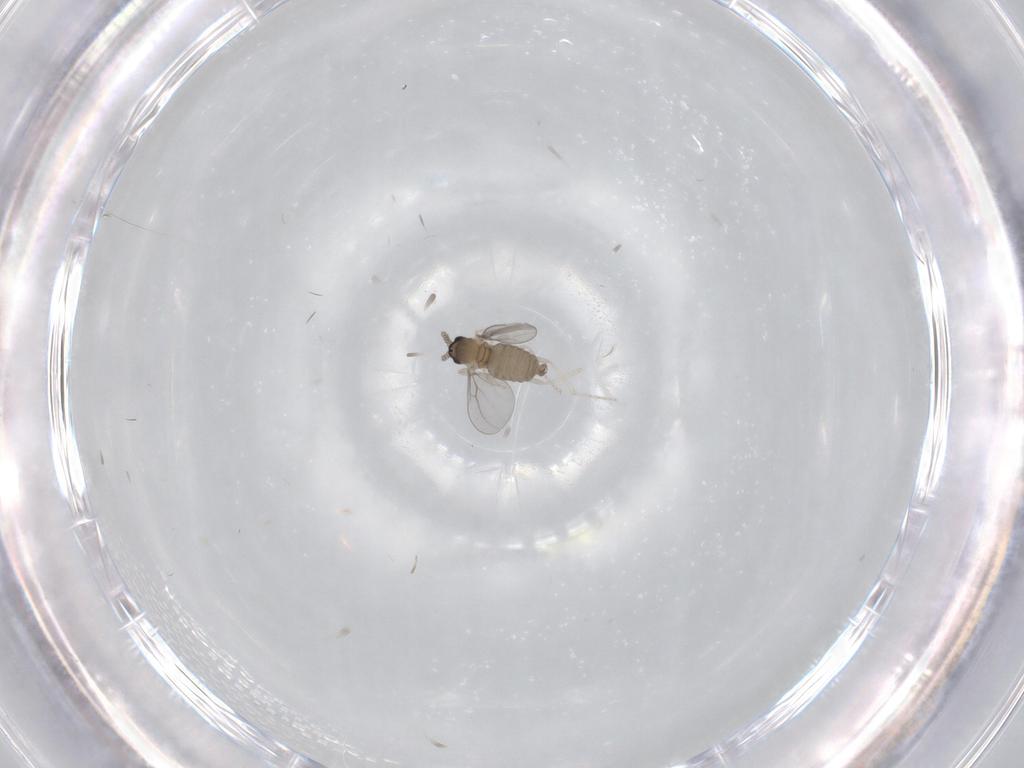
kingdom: Animalia
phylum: Arthropoda
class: Insecta
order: Diptera
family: Cecidomyiidae
